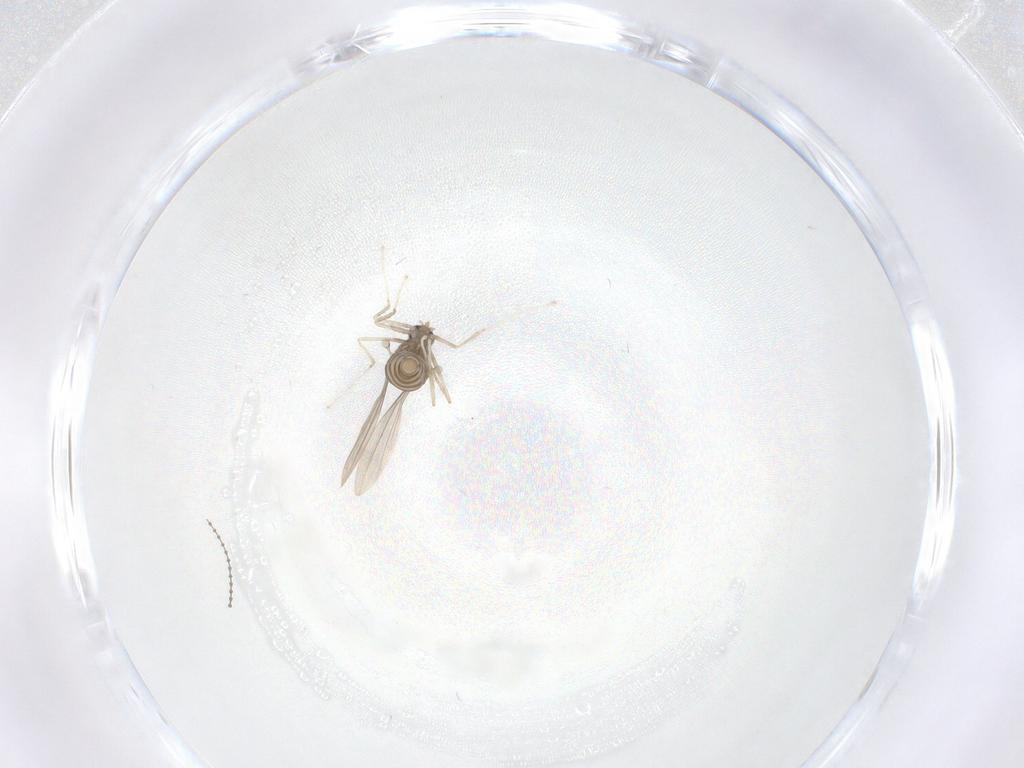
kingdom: Animalia
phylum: Arthropoda
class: Insecta
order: Diptera
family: Cecidomyiidae
